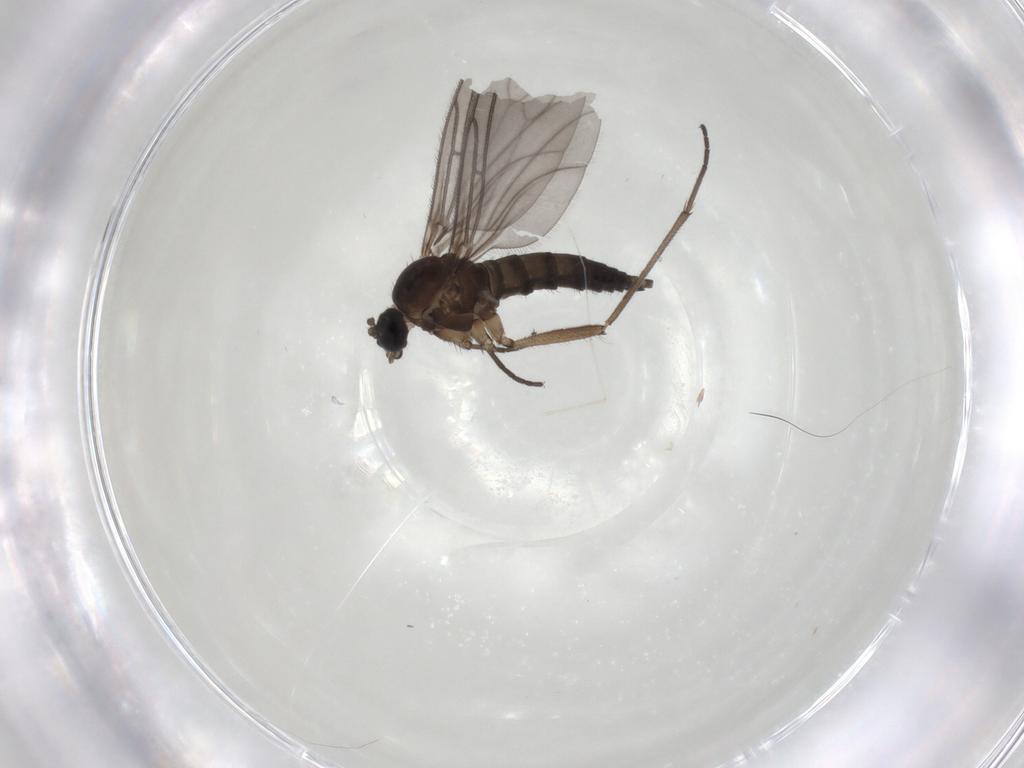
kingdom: Animalia
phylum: Arthropoda
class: Insecta
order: Diptera
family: Sciaridae
